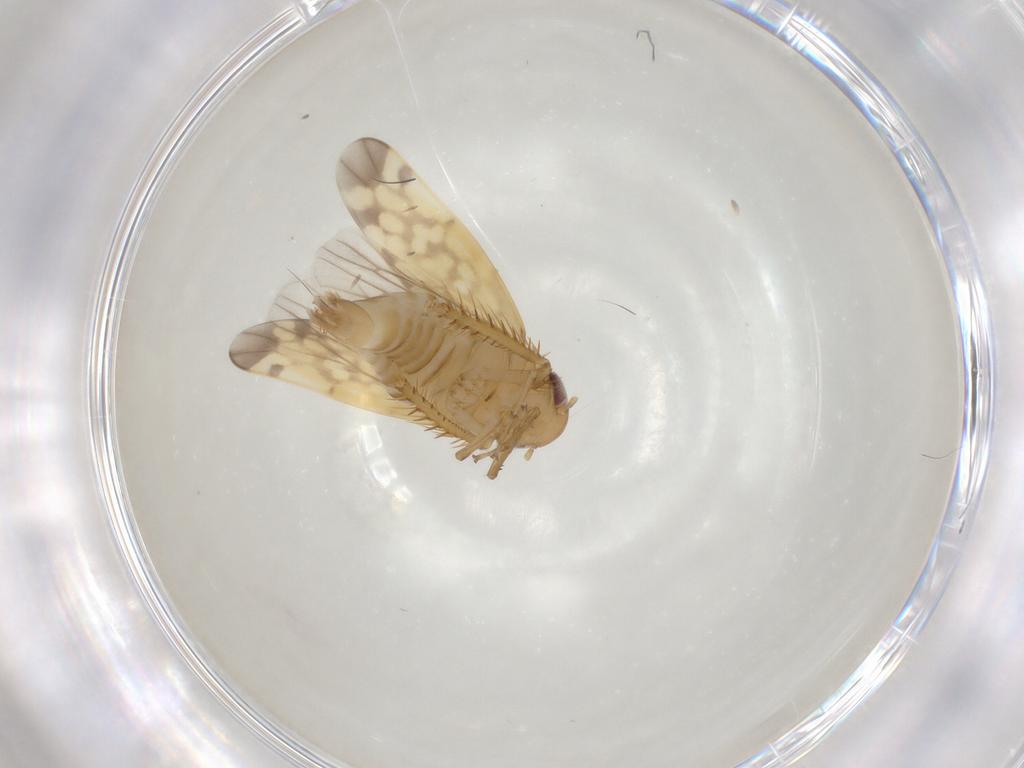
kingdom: Animalia
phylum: Arthropoda
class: Insecta
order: Hemiptera
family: Cicadellidae
